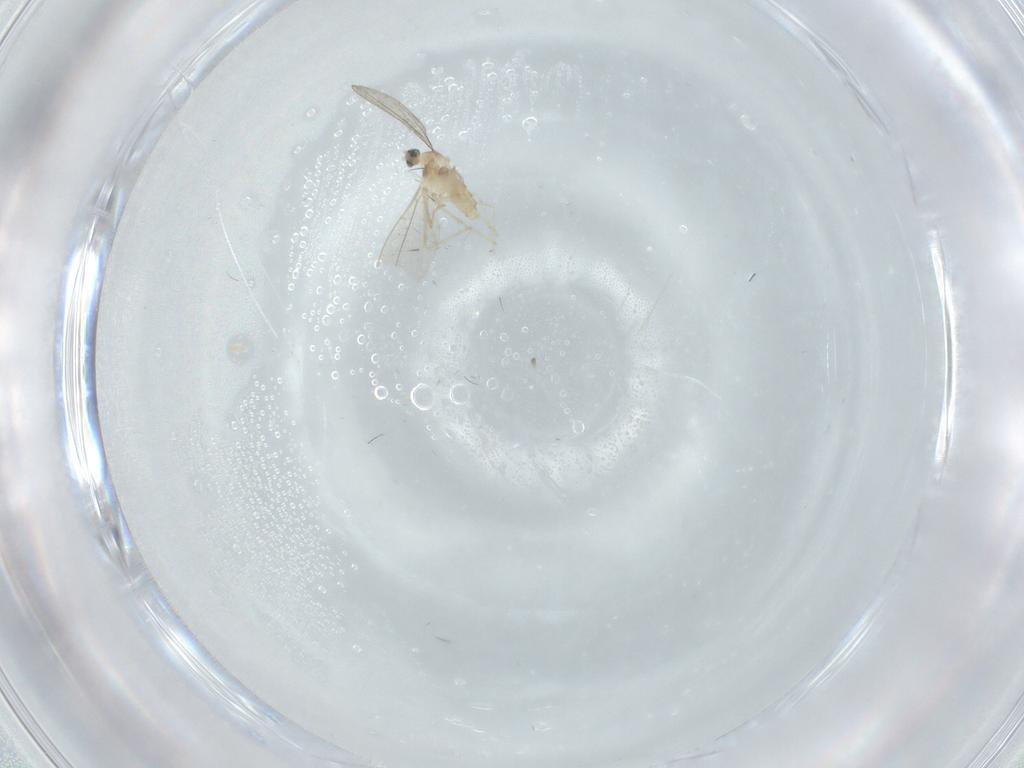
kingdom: Animalia
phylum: Arthropoda
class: Insecta
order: Diptera
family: Cecidomyiidae
